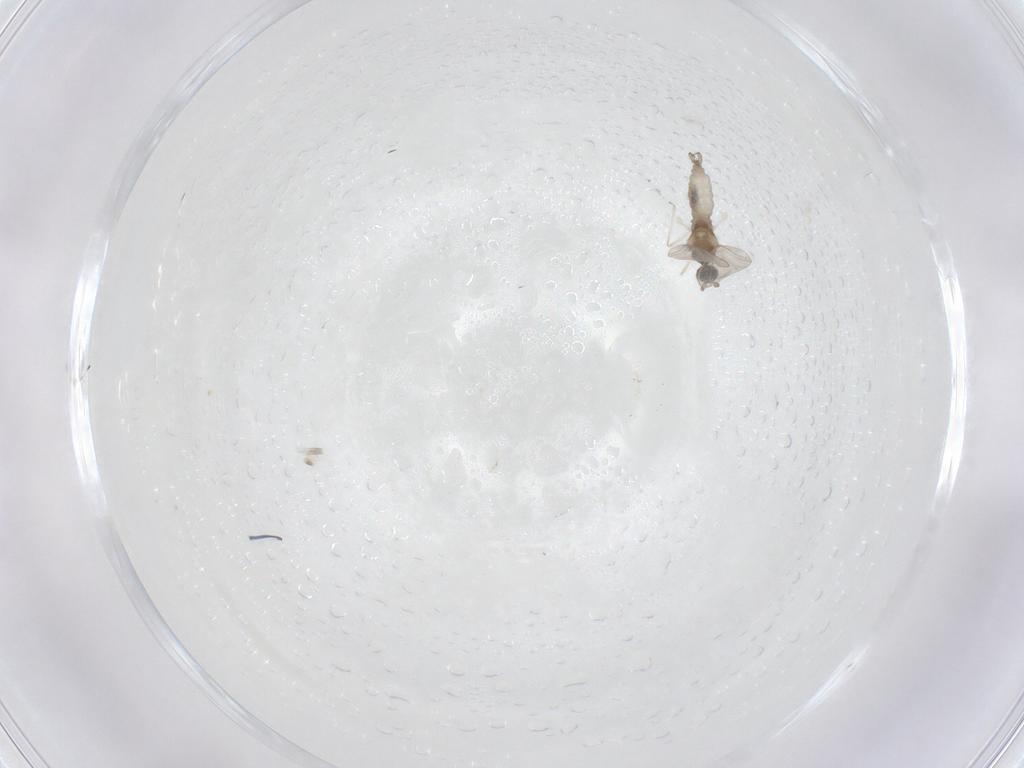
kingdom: Animalia
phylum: Arthropoda
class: Insecta
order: Diptera
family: Cecidomyiidae
